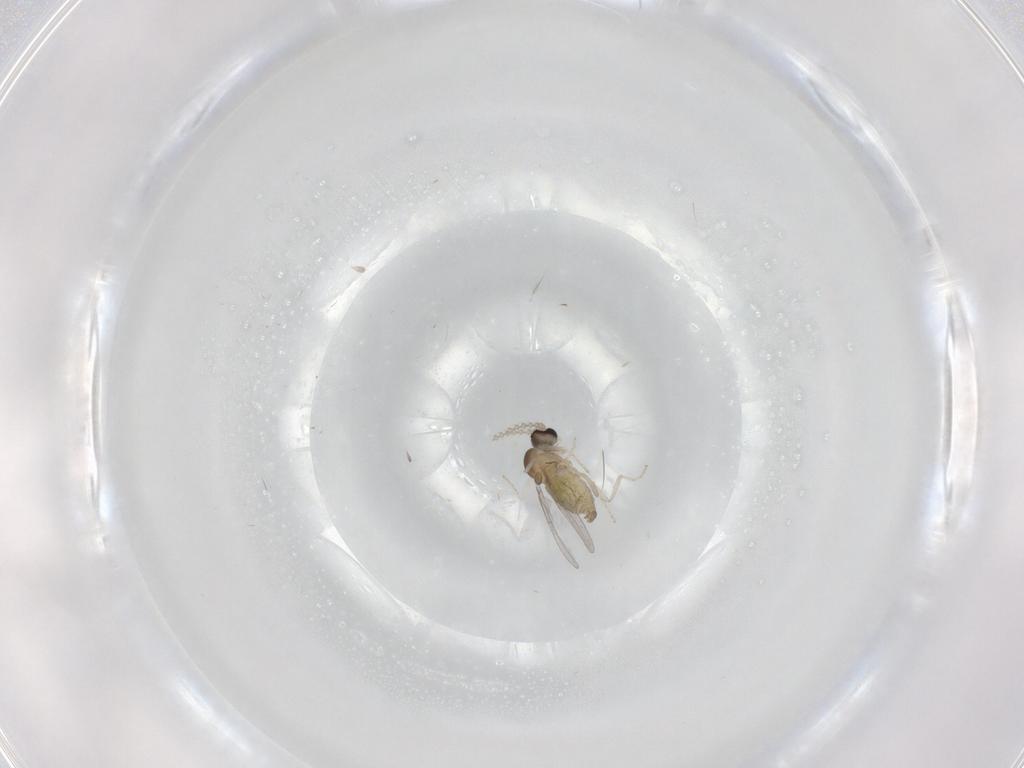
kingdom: Animalia
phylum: Arthropoda
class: Insecta
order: Diptera
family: Cecidomyiidae
